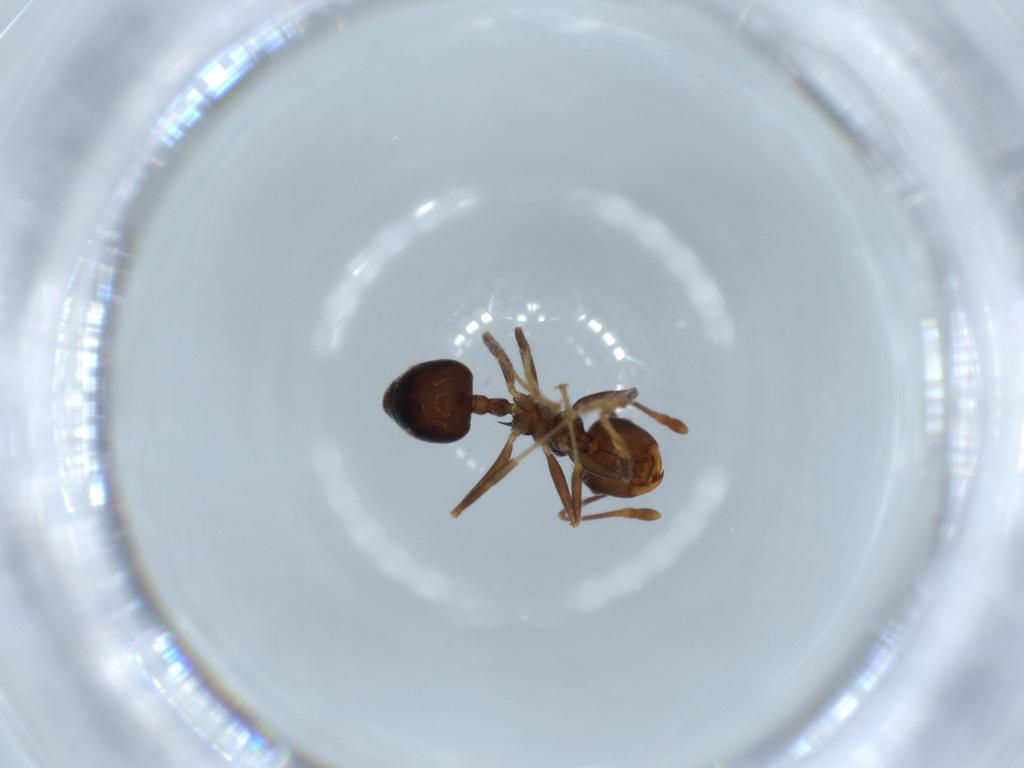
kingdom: Animalia
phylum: Arthropoda
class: Insecta
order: Hymenoptera
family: Formicidae
